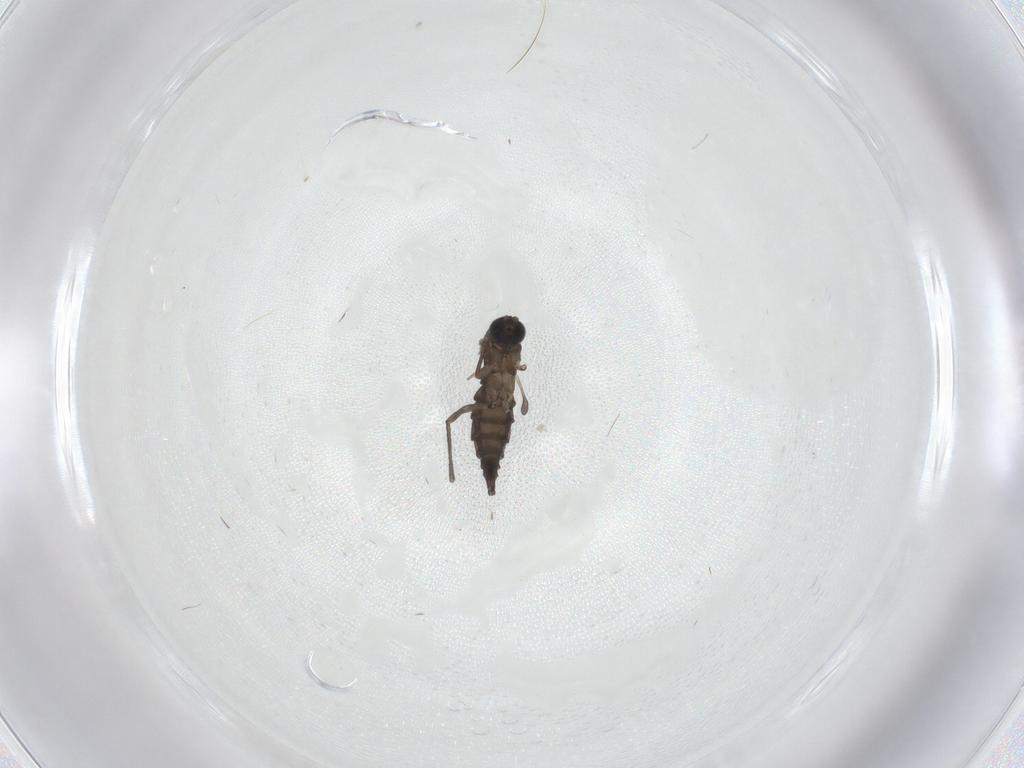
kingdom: Animalia
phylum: Arthropoda
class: Insecta
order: Diptera
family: Sciaridae
